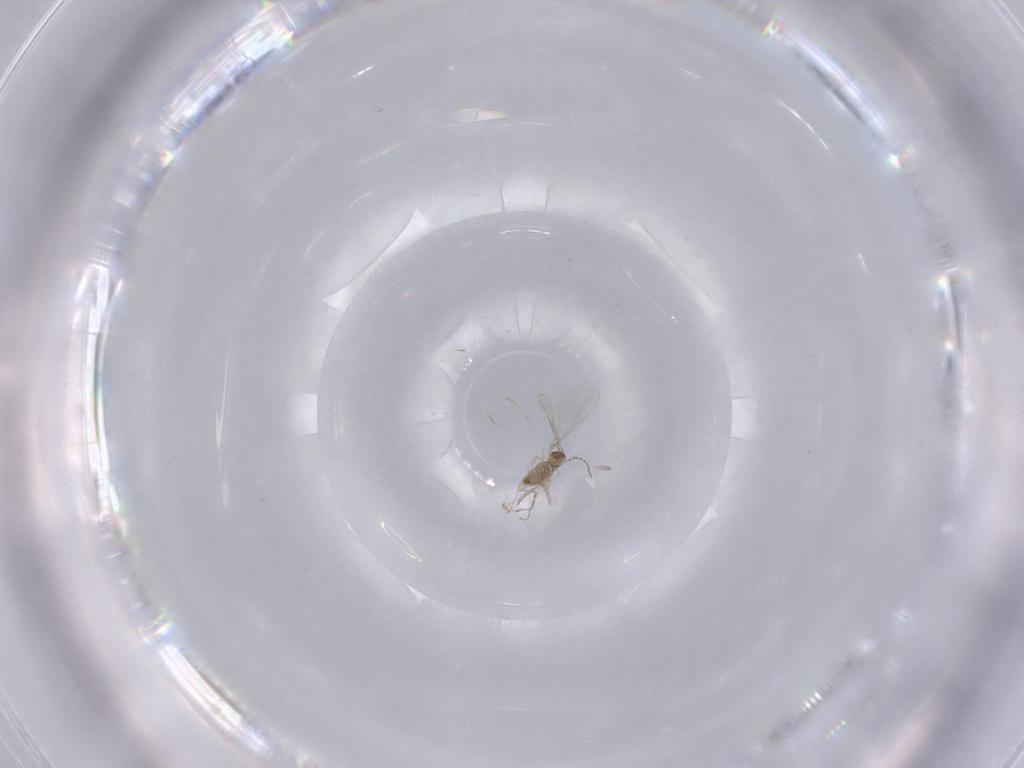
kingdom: Animalia
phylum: Arthropoda
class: Insecta
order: Diptera
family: Cecidomyiidae
